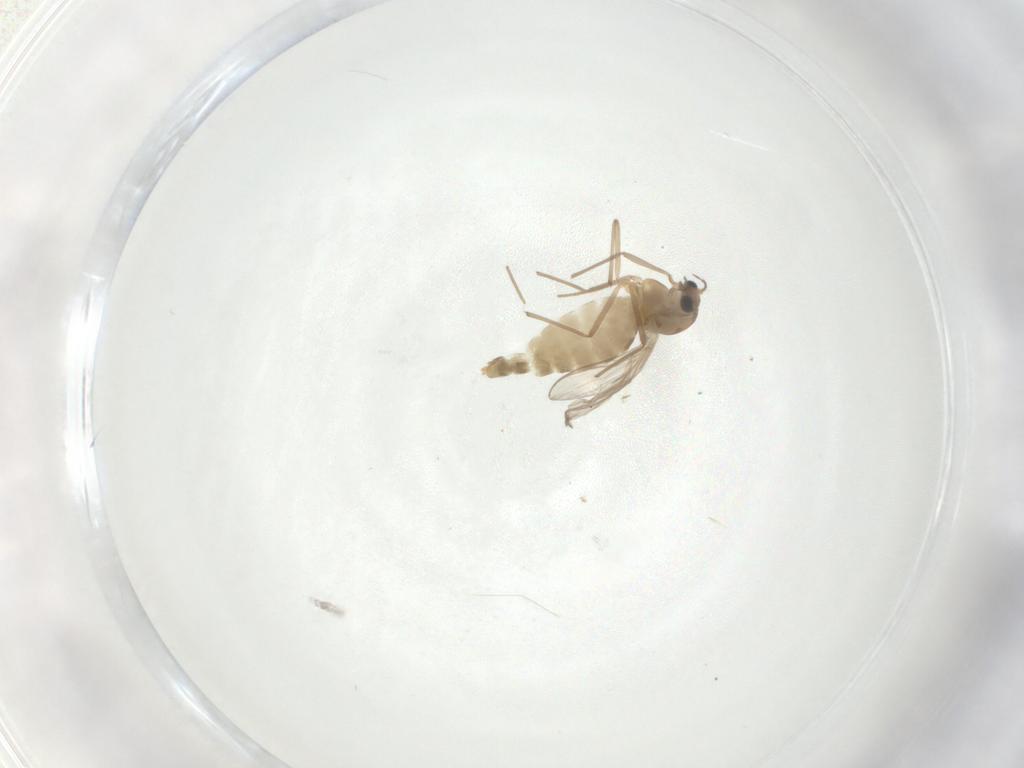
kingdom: Animalia
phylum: Arthropoda
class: Insecta
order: Diptera
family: Chironomidae
